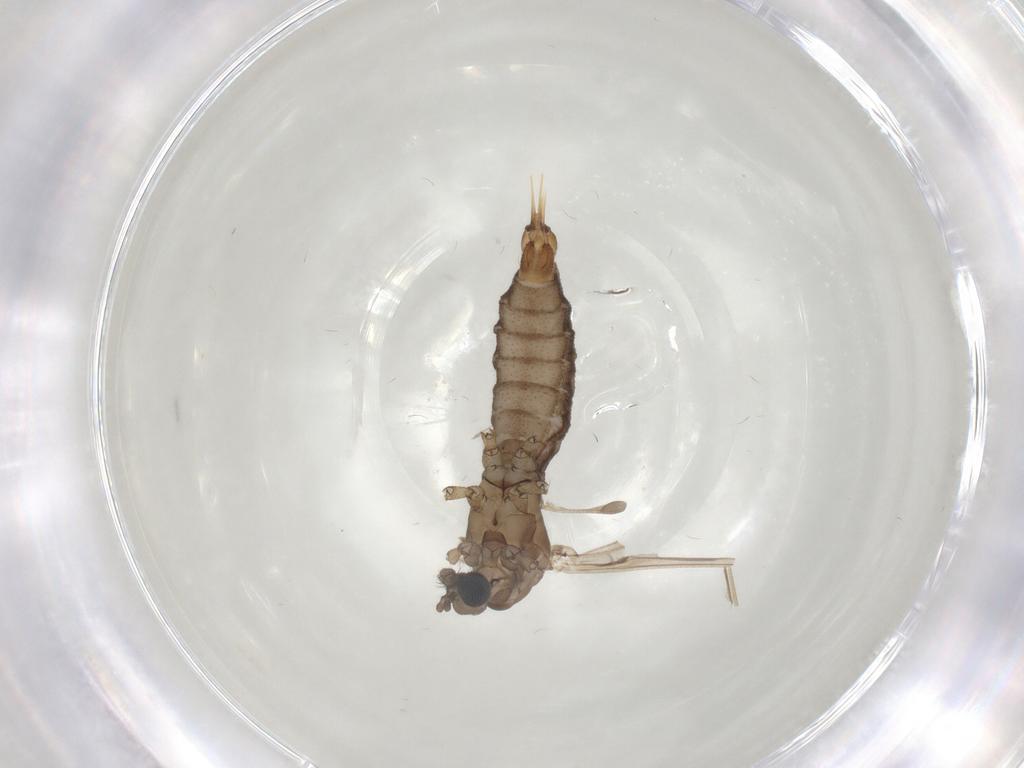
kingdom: Animalia
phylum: Arthropoda
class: Insecta
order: Diptera
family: Limoniidae
